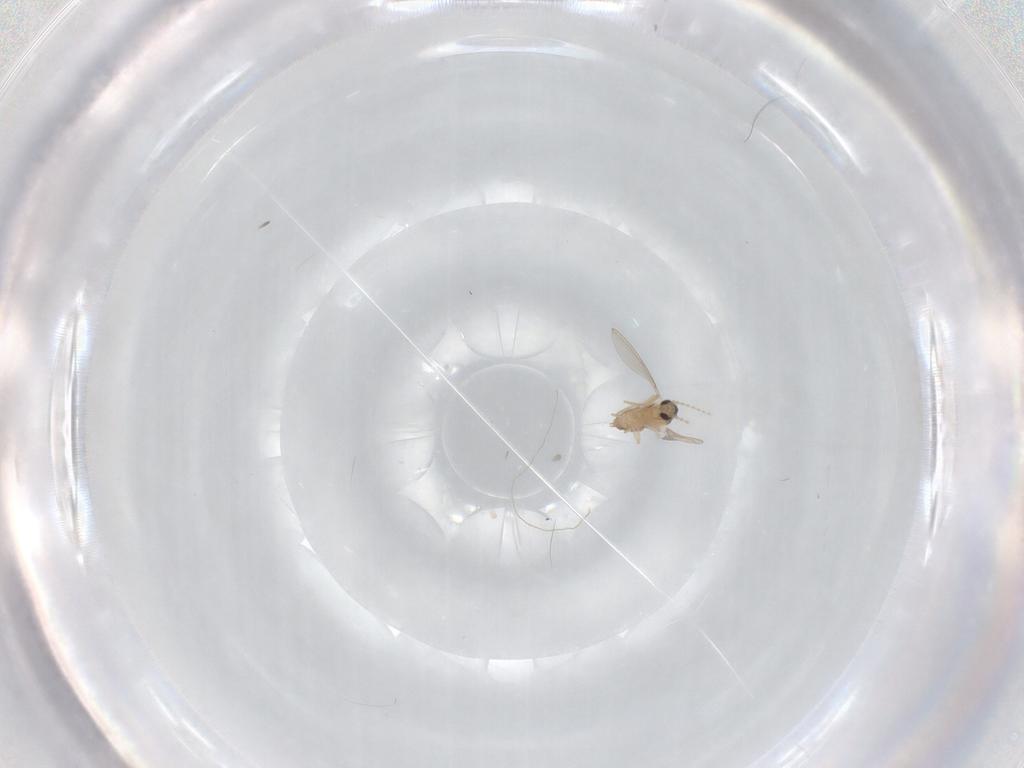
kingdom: Animalia
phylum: Arthropoda
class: Insecta
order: Diptera
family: Cecidomyiidae
